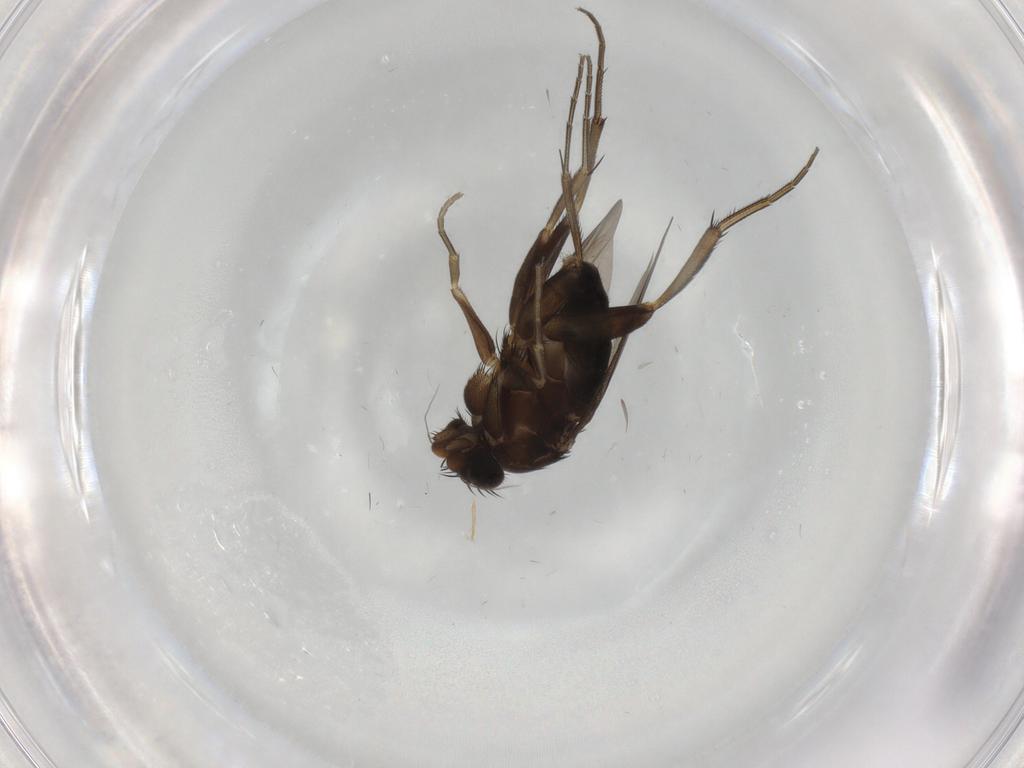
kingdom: Animalia
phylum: Arthropoda
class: Insecta
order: Diptera
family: Phoridae
